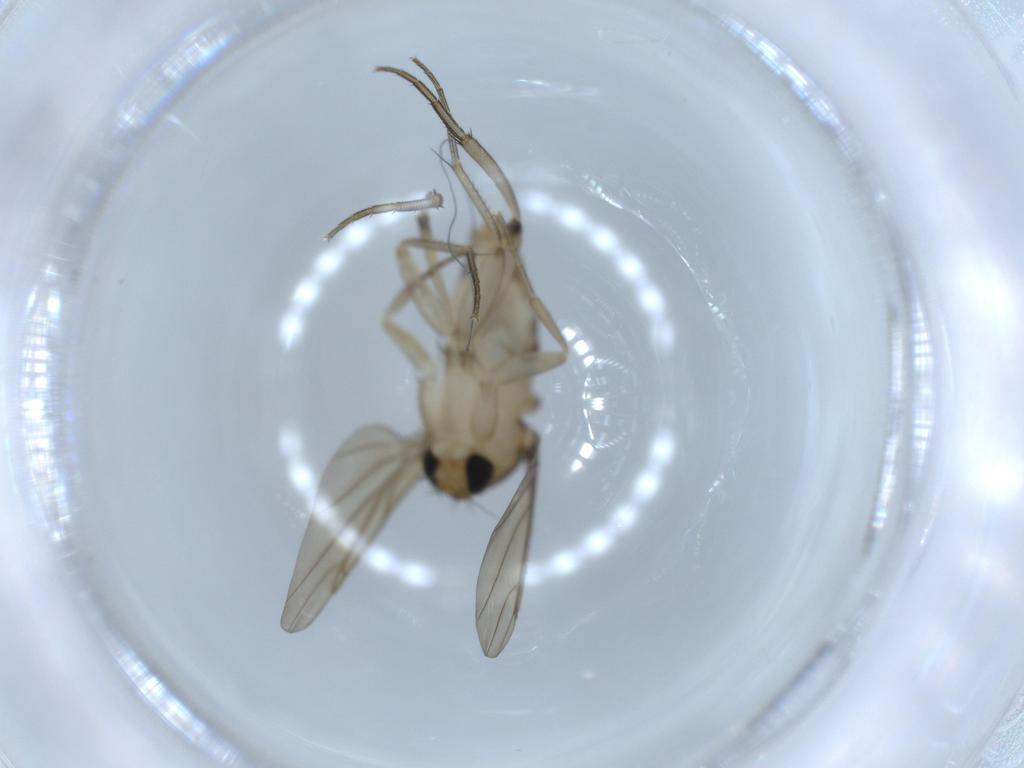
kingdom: Animalia
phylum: Arthropoda
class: Insecta
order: Diptera
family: Phoridae
